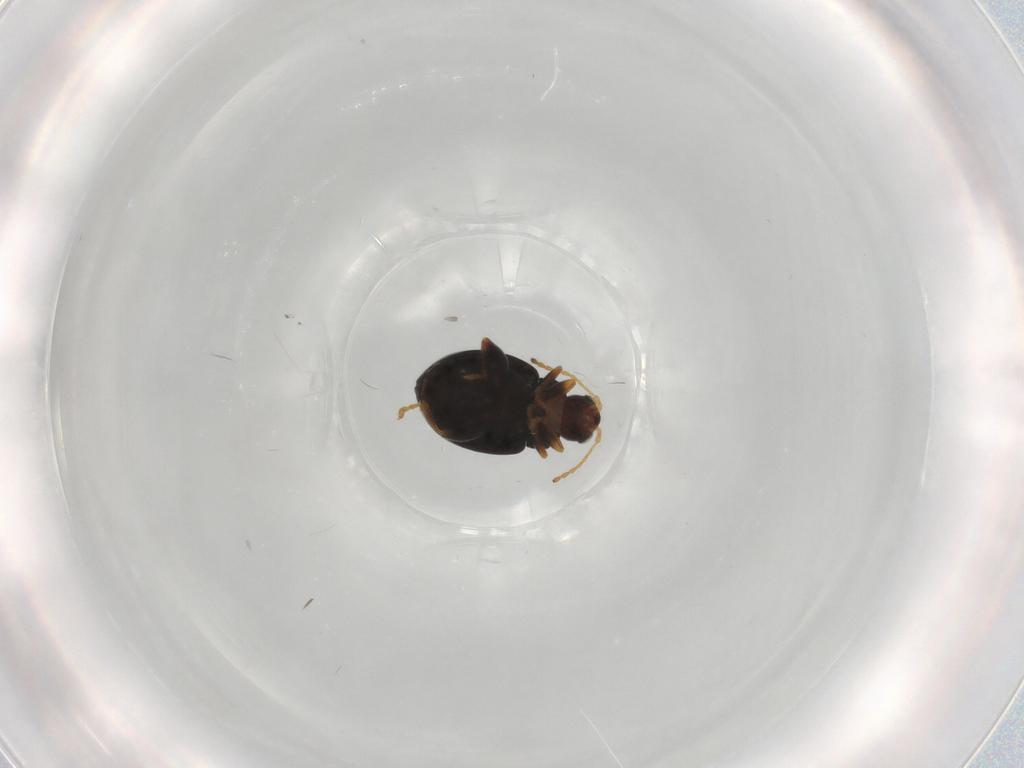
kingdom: Animalia
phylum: Arthropoda
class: Insecta
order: Coleoptera
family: Chrysomelidae
